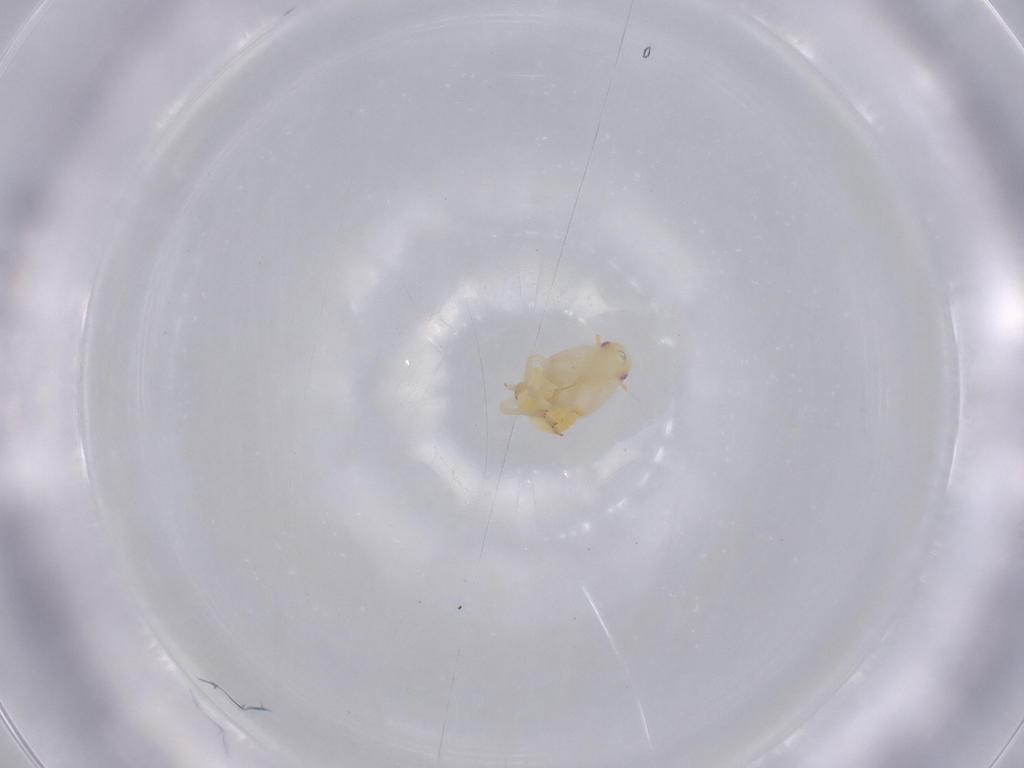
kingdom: Animalia
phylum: Arthropoda
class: Insecta
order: Hemiptera
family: Flatidae
